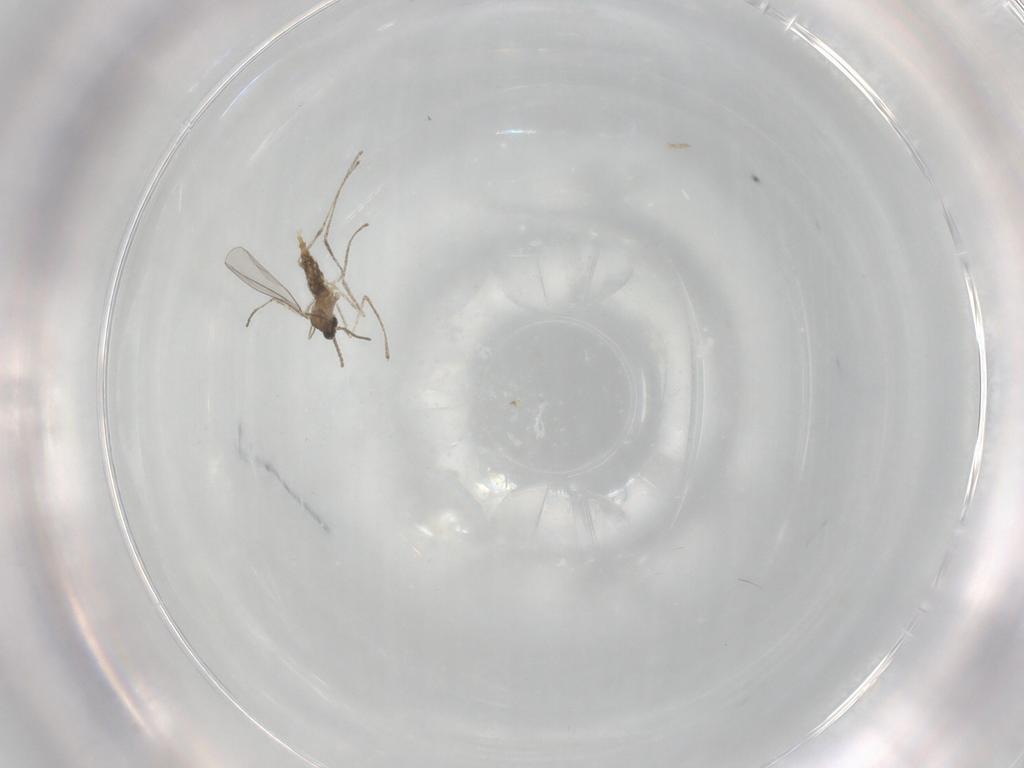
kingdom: Animalia
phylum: Arthropoda
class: Insecta
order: Diptera
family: Cecidomyiidae
